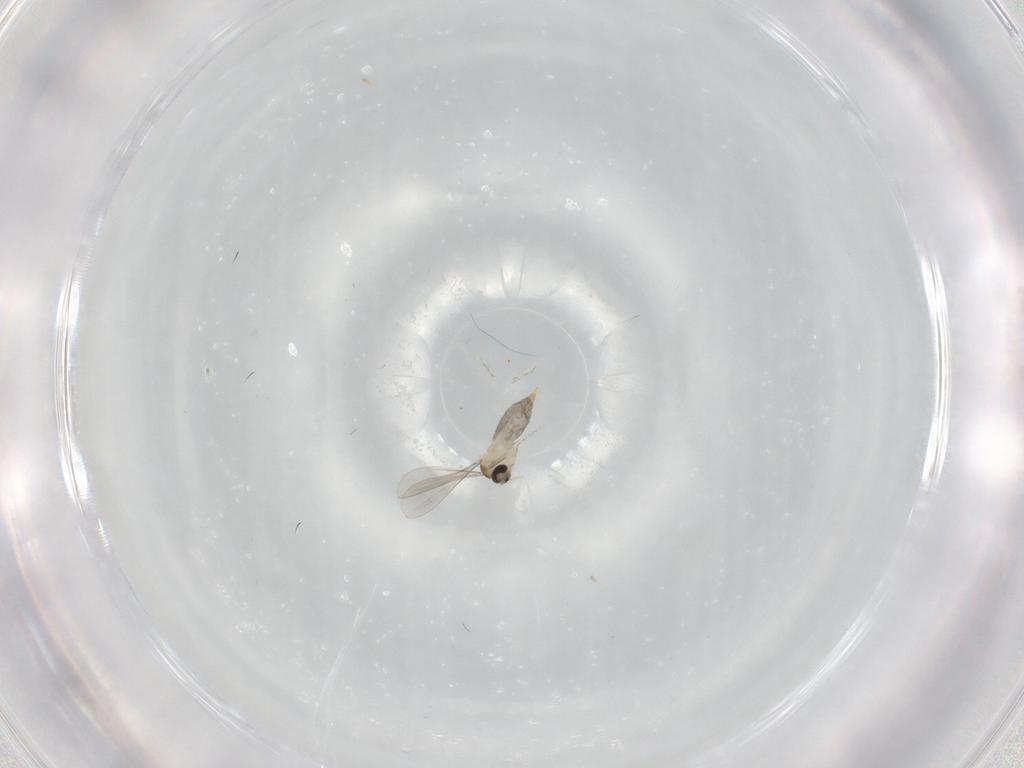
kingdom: Animalia
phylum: Arthropoda
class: Insecta
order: Diptera
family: Cecidomyiidae
